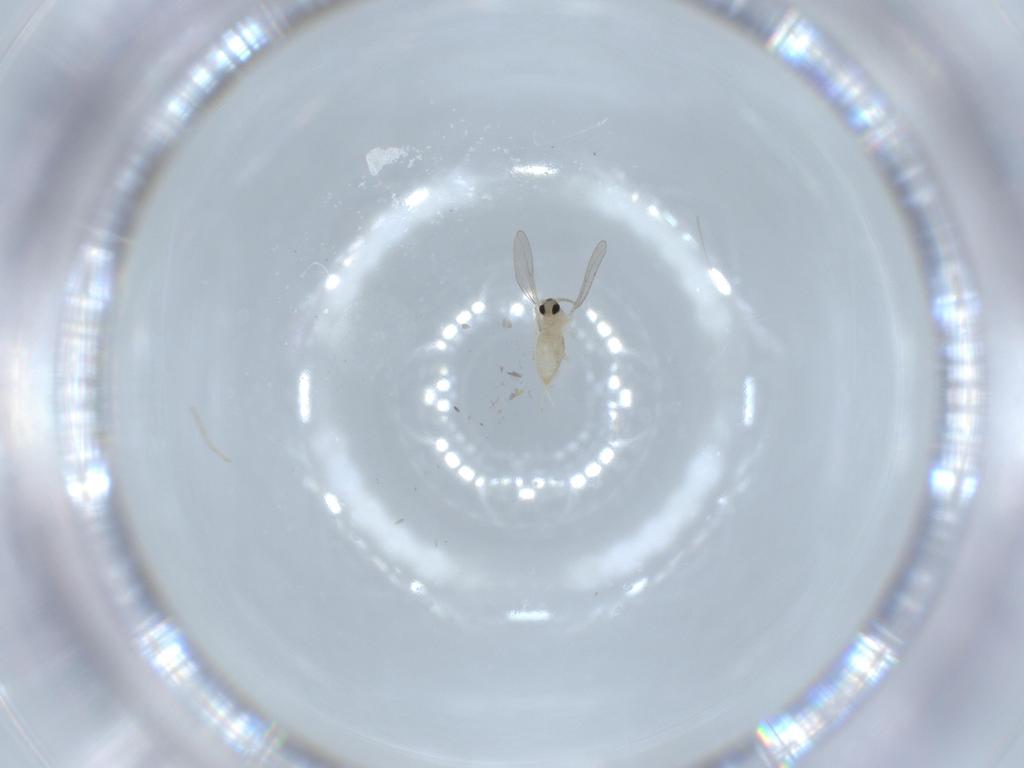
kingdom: Animalia
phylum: Arthropoda
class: Insecta
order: Diptera
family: Cecidomyiidae
